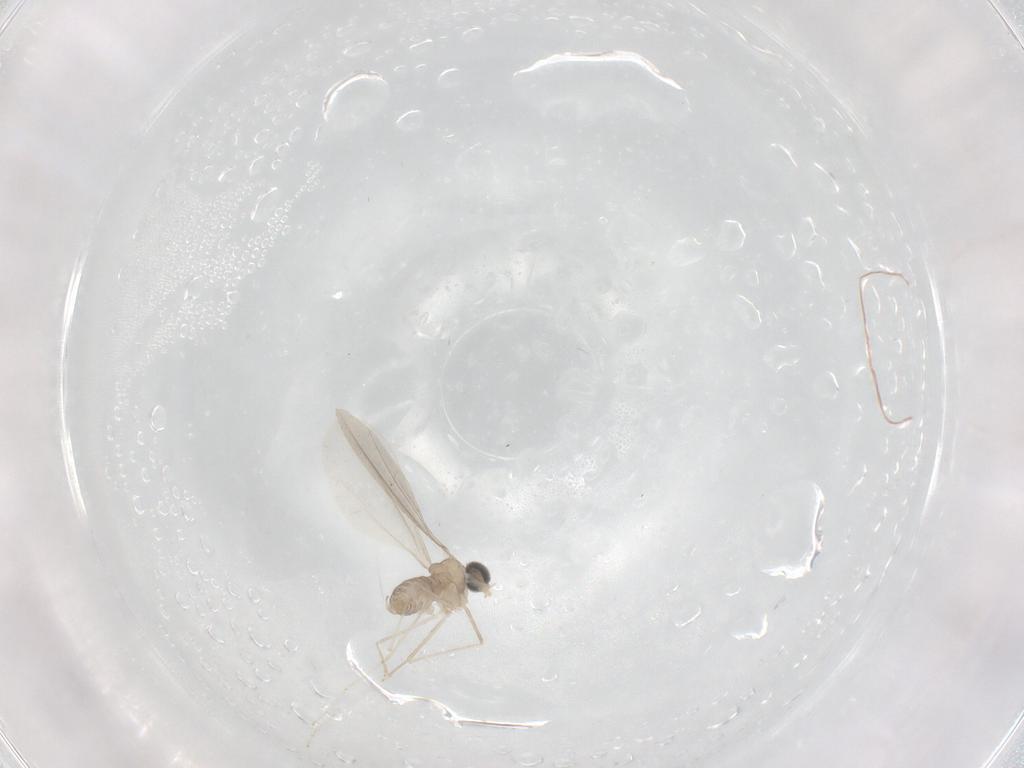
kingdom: Animalia
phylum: Arthropoda
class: Insecta
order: Diptera
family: Cecidomyiidae
